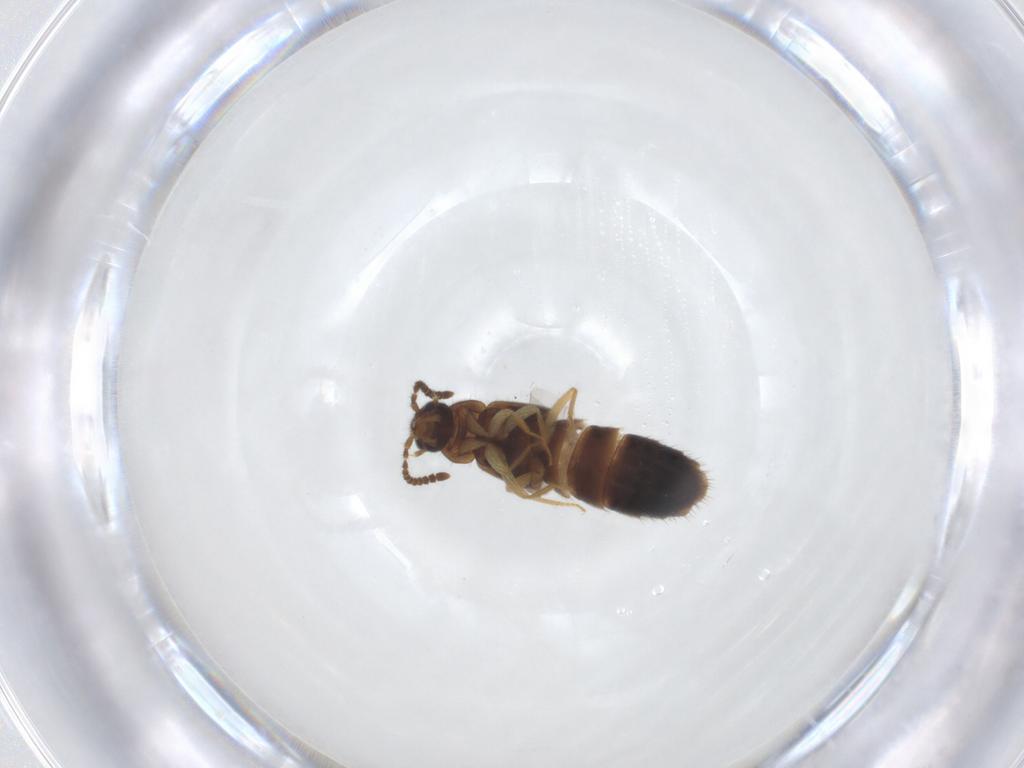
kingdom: Animalia
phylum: Arthropoda
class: Insecta
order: Coleoptera
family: Staphylinidae
